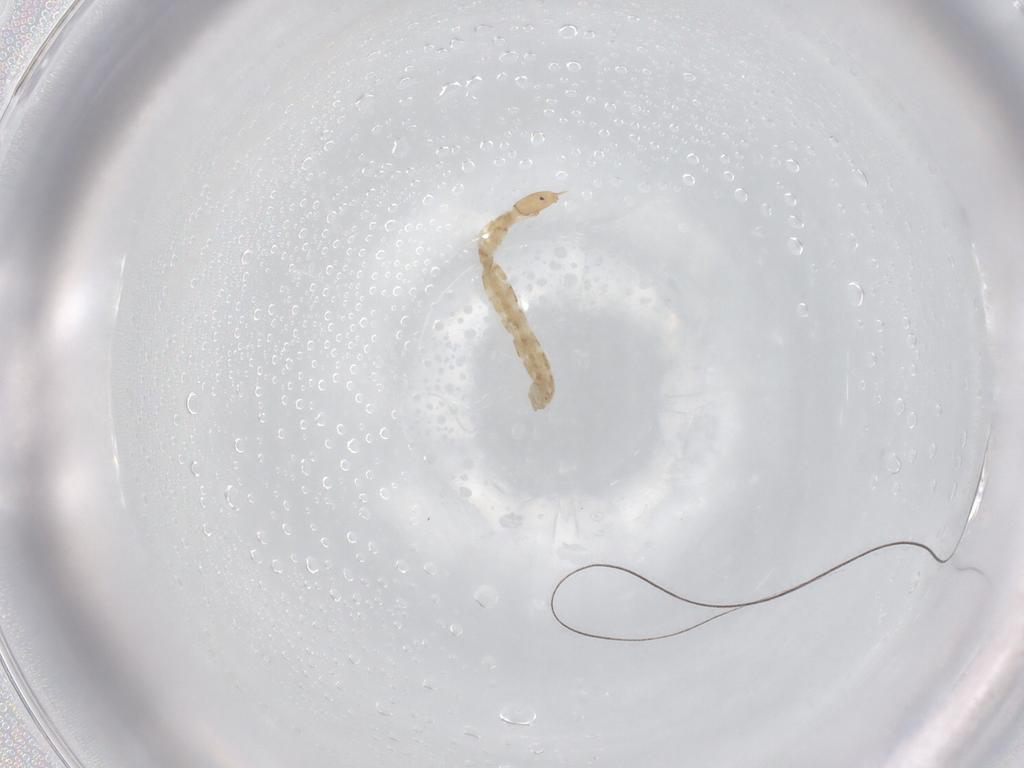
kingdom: Animalia
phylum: Arthropoda
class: Insecta
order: Diptera
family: Chironomidae
